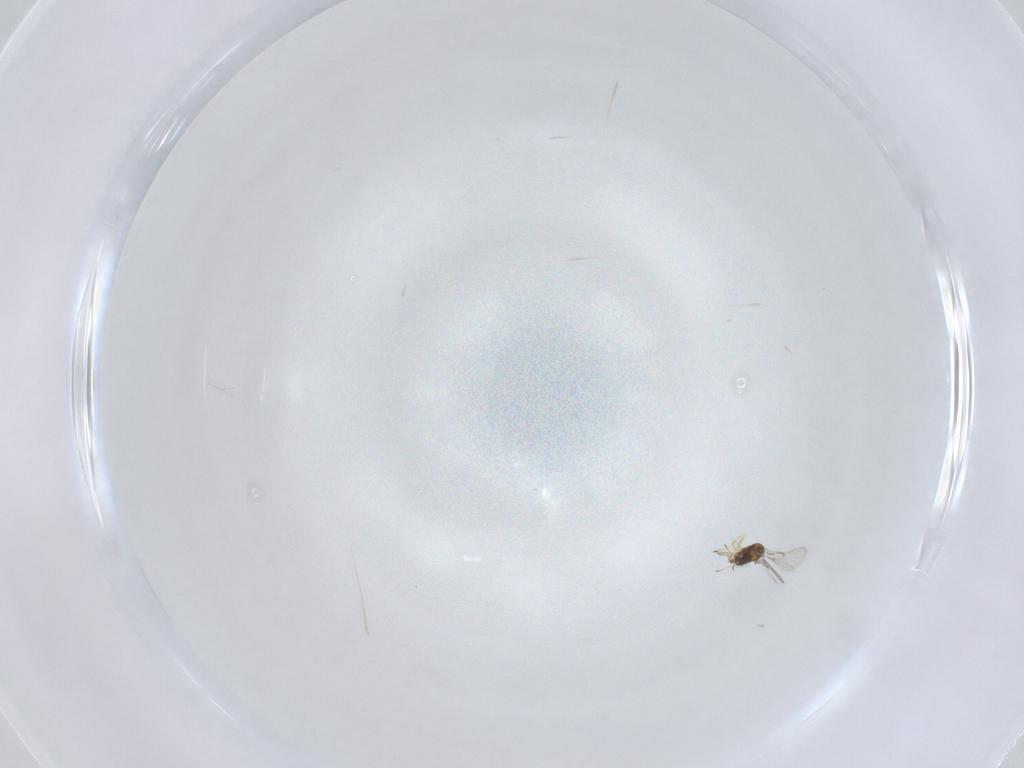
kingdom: Animalia
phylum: Arthropoda
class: Insecta
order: Hymenoptera
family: Trichogrammatidae
